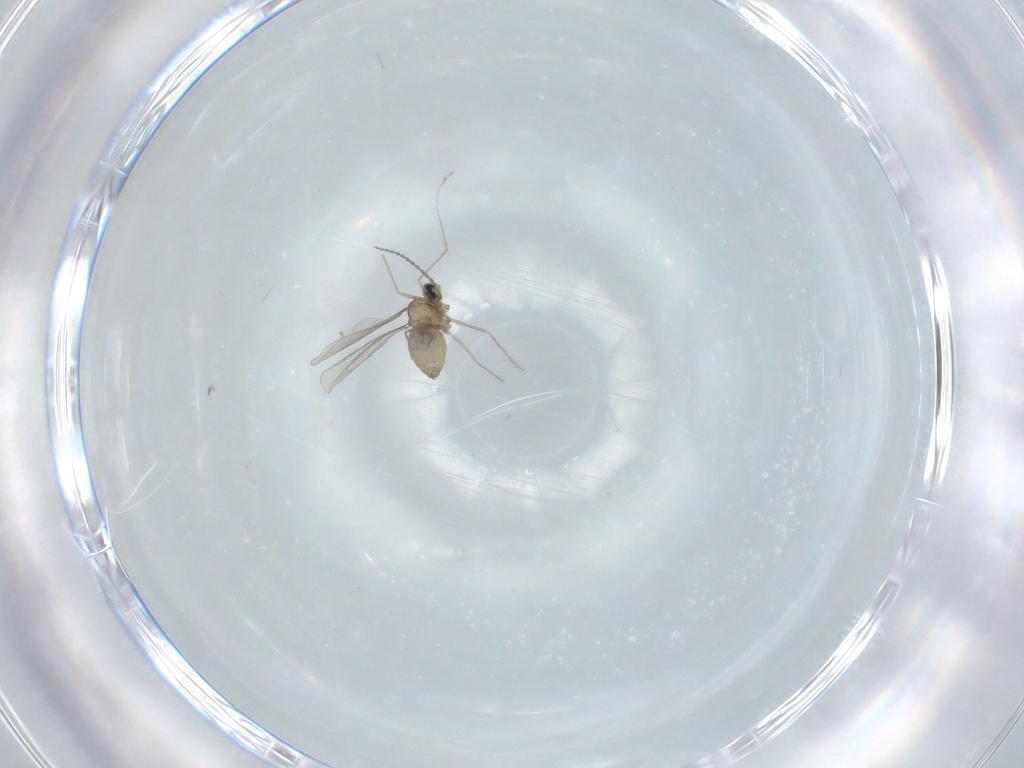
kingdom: Animalia
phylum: Arthropoda
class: Insecta
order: Diptera
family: Cecidomyiidae
